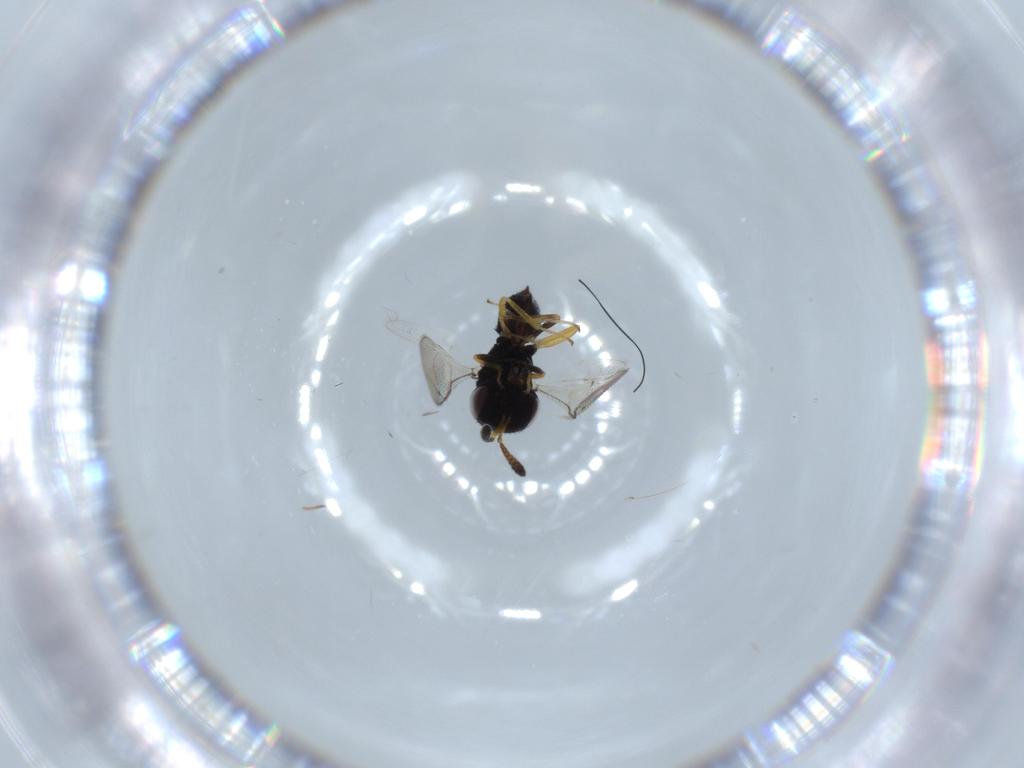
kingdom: Animalia
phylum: Arthropoda
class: Insecta
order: Hymenoptera
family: Pteromalidae
